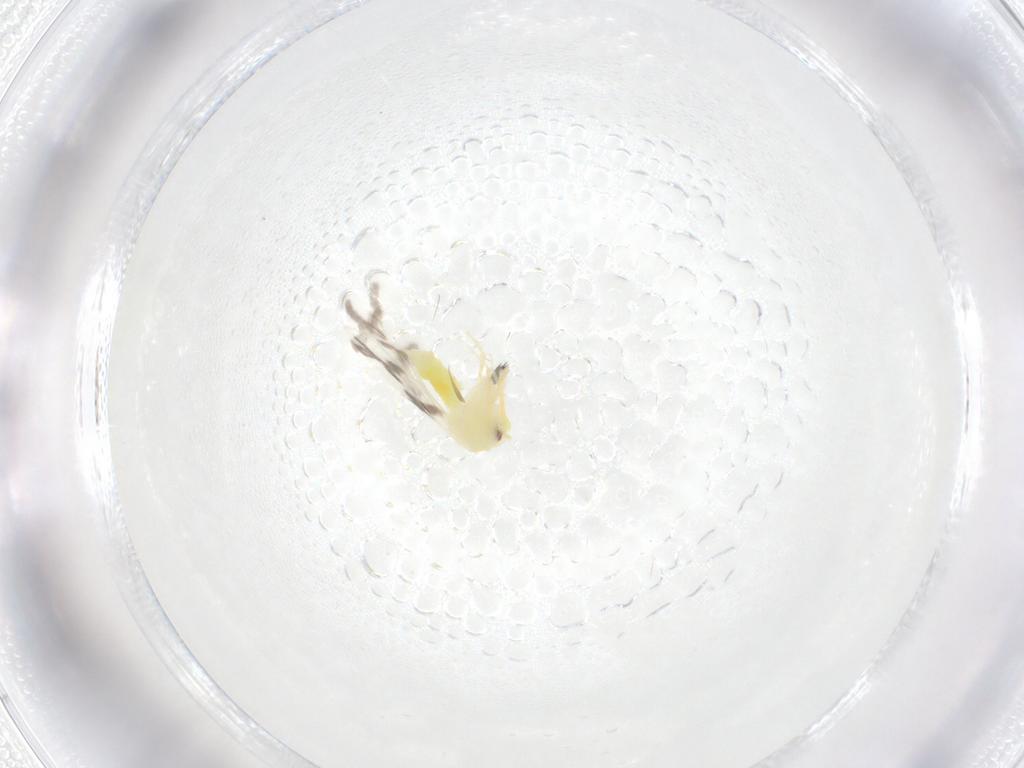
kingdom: Animalia
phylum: Arthropoda
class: Insecta
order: Hemiptera
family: Aleyrodidae
